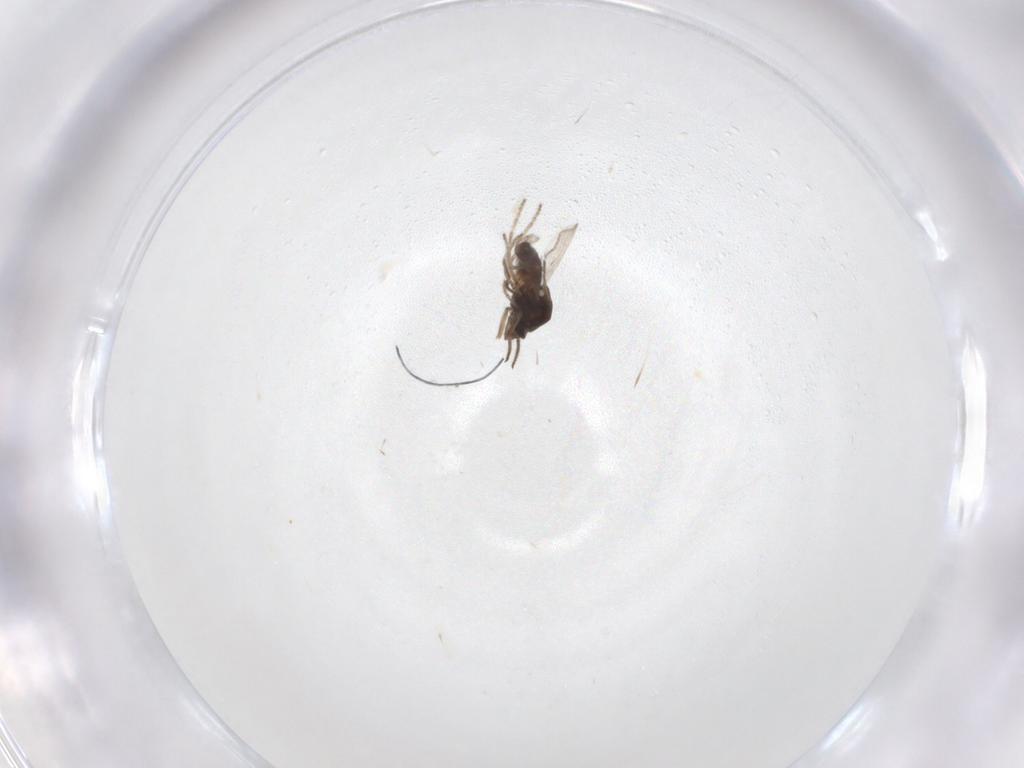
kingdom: Animalia
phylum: Arthropoda
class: Insecta
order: Diptera
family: Ceratopogonidae
